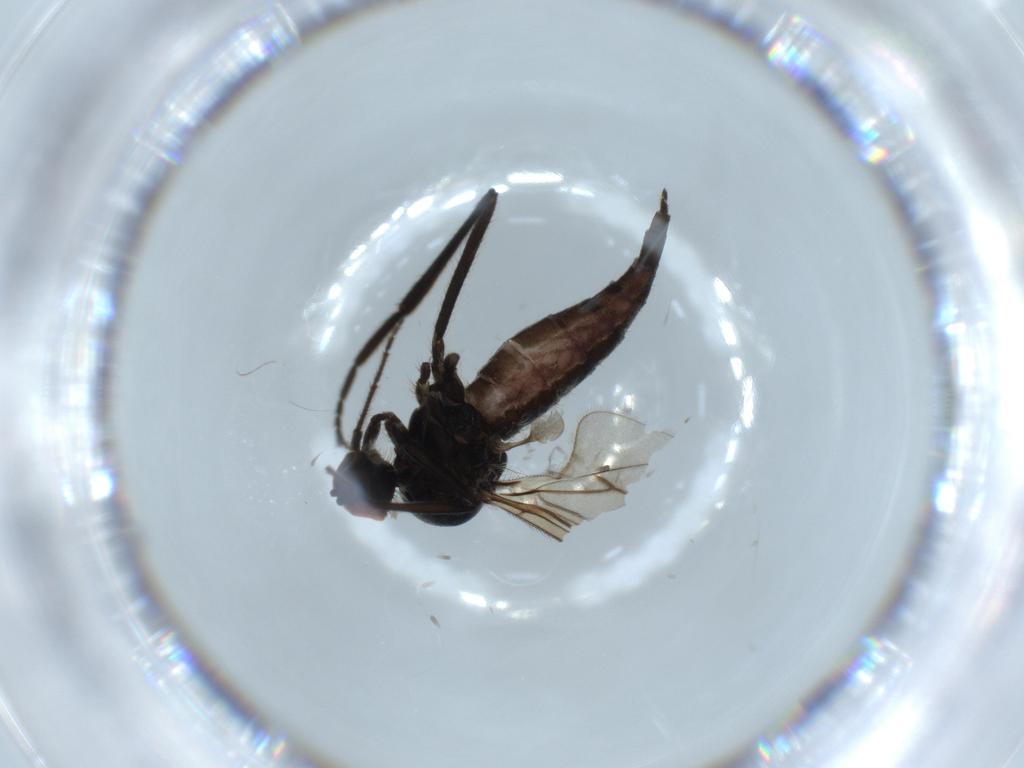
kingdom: Animalia
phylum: Arthropoda
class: Insecta
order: Diptera
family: Hybotidae
